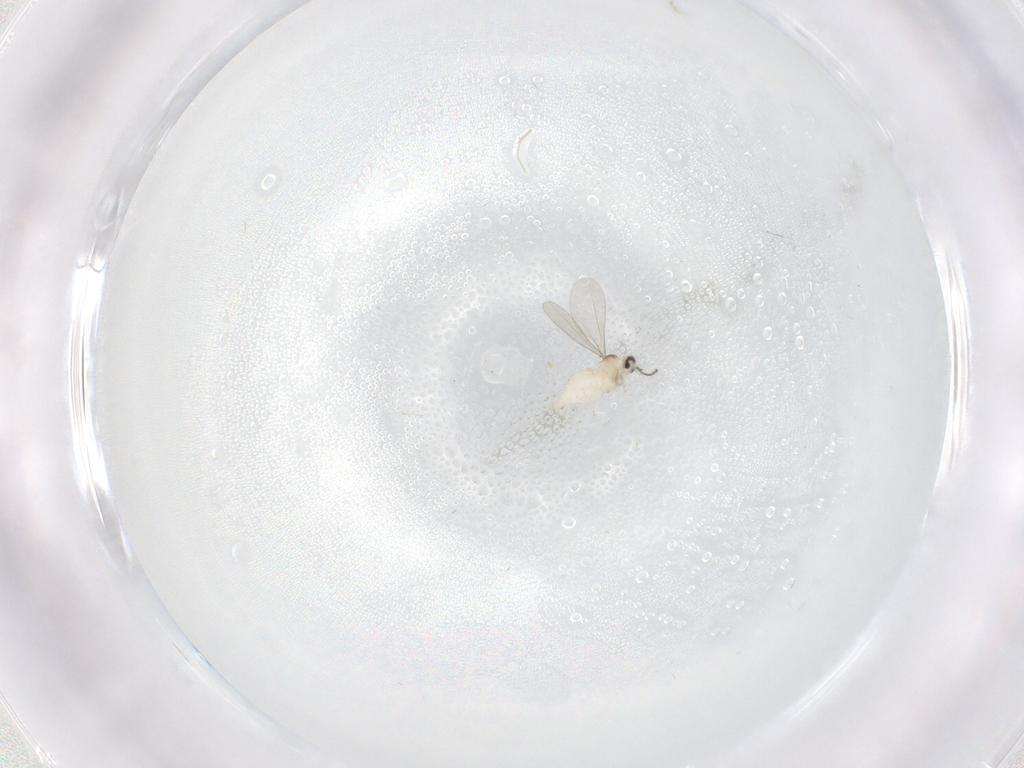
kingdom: Animalia
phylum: Arthropoda
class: Insecta
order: Diptera
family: Cecidomyiidae
